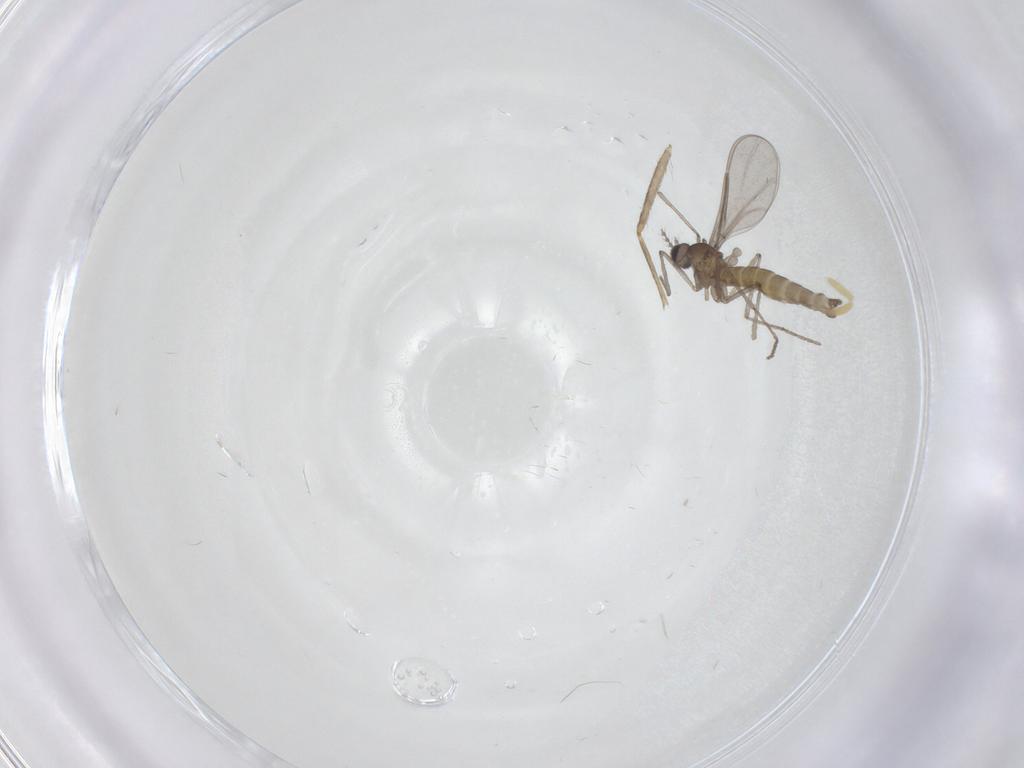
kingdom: Animalia
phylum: Arthropoda
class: Insecta
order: Diptera
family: Cecidomyiidae
